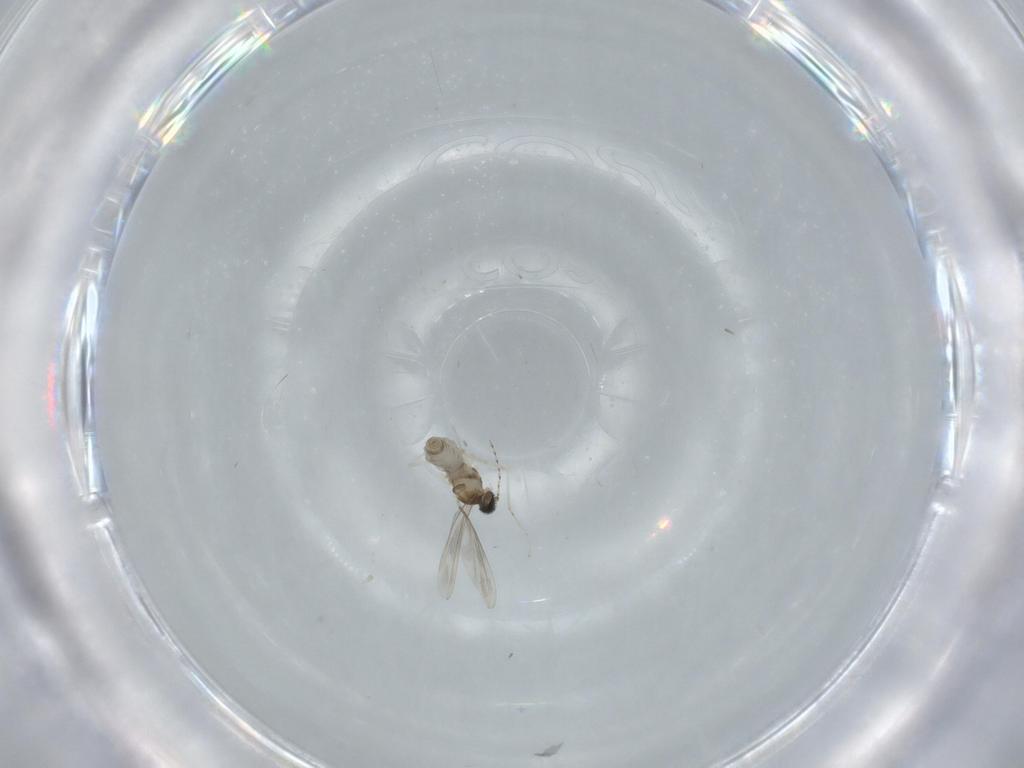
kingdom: Animalia
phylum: Arthropoda
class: Insecta
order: Diptera
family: Cecidomyiidae
